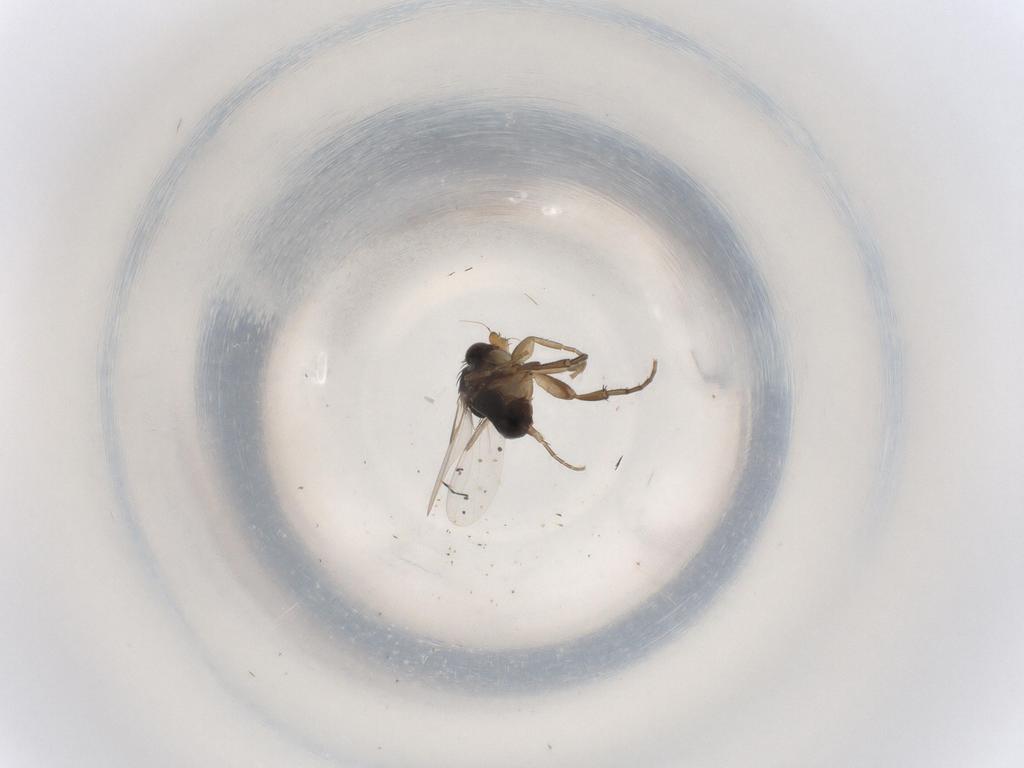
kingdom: Animalia
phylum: Arthropoda
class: Insecta
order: Diptera
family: Phoridae
